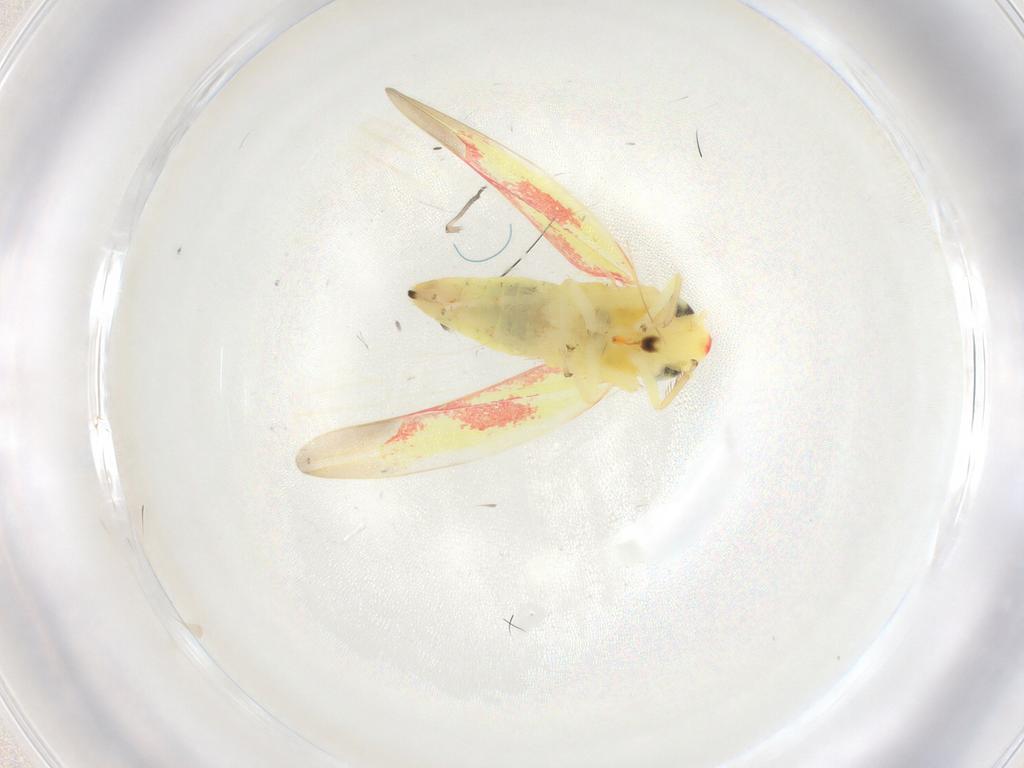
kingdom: Animalia
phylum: Arthropoda
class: Insecta
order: Hemiptera
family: Cicadellidae
